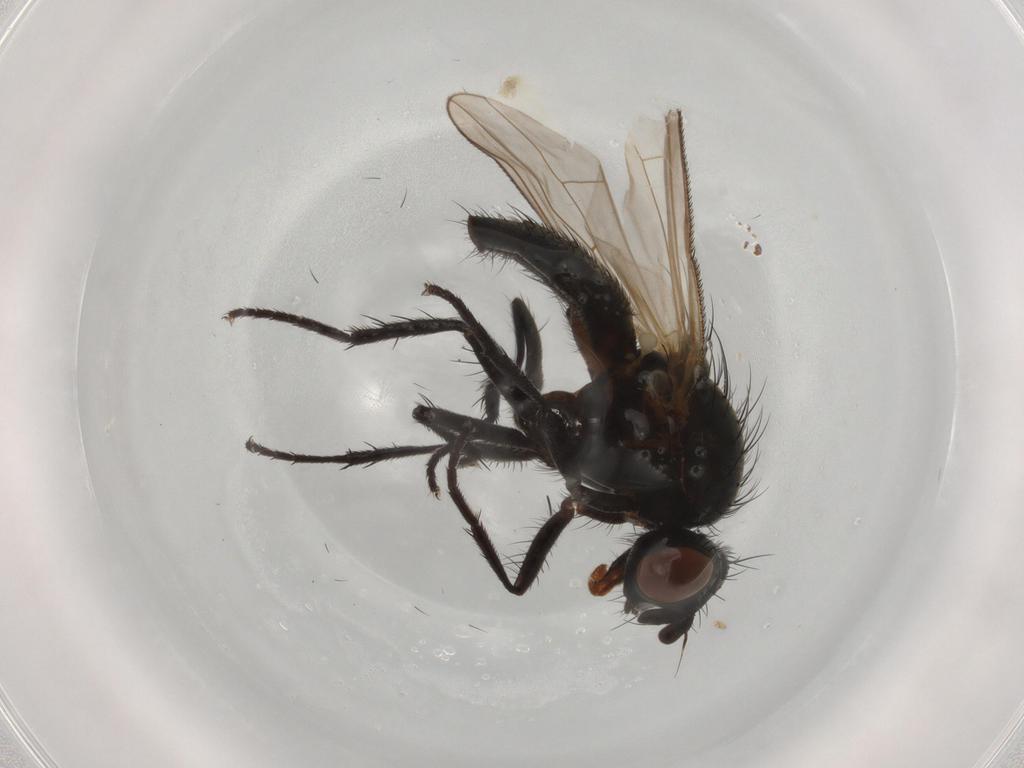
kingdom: Animalia
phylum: Arthropoda
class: Insecta
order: Diptera
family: Anthomyiidae
